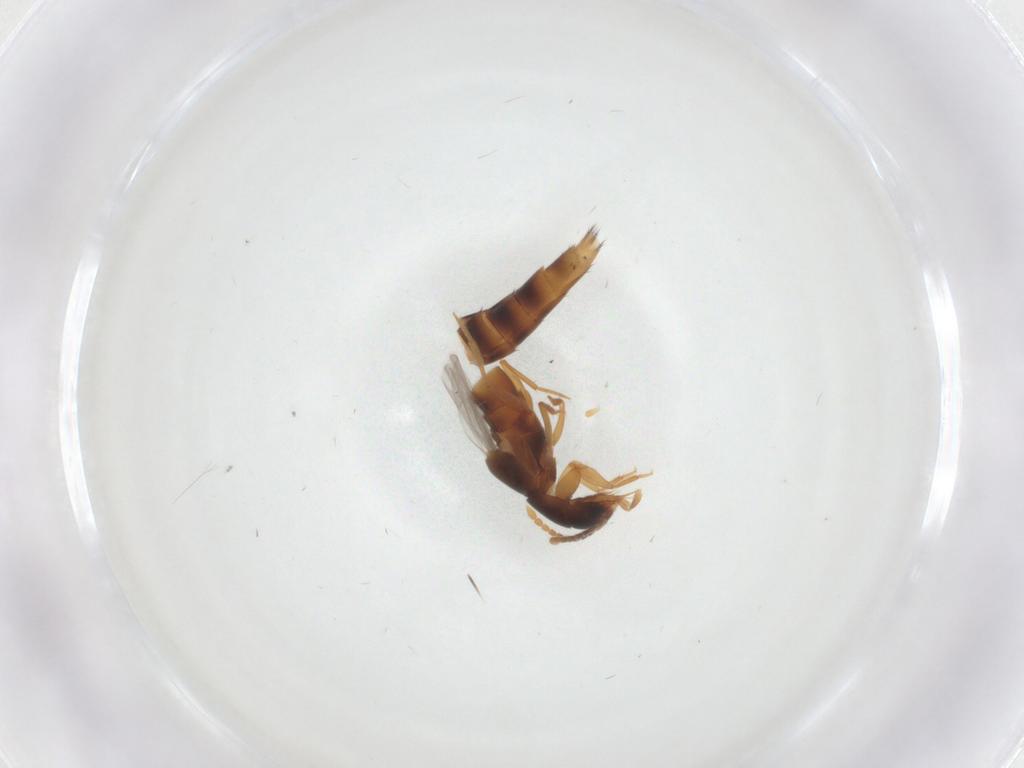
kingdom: Animalia
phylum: Arthropoda
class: Insecta
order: Coleoptera
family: Staphylinidae
